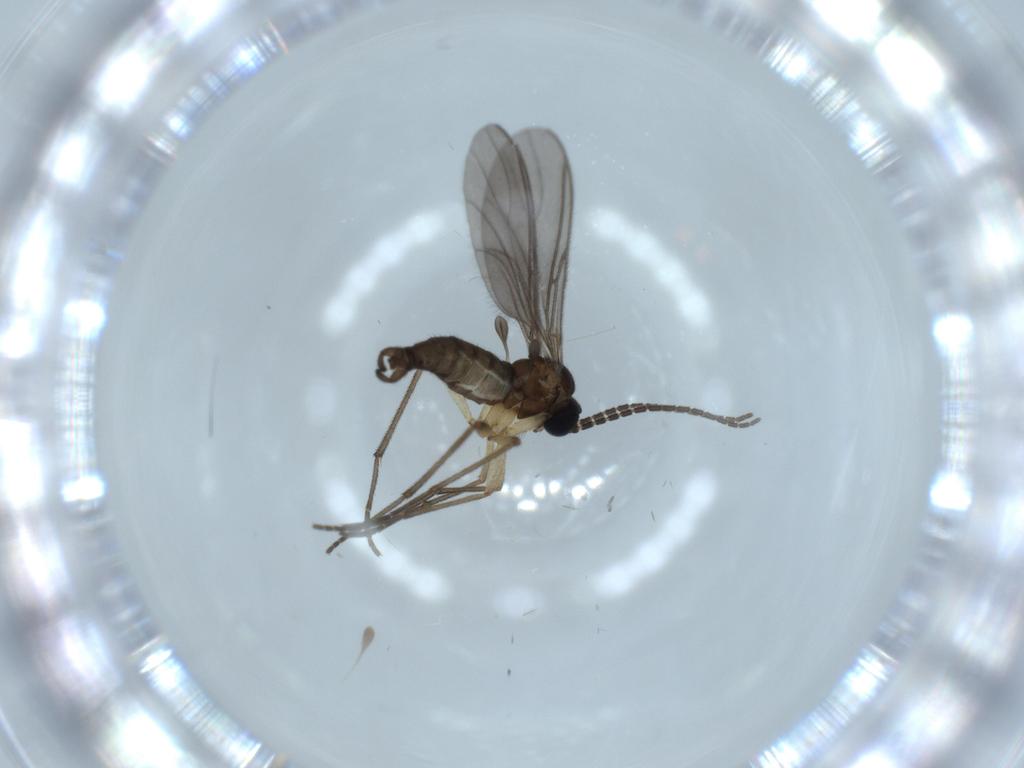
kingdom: Animalia
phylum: Arthropoda
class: Insecta
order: Diptera
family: Sciaridae
